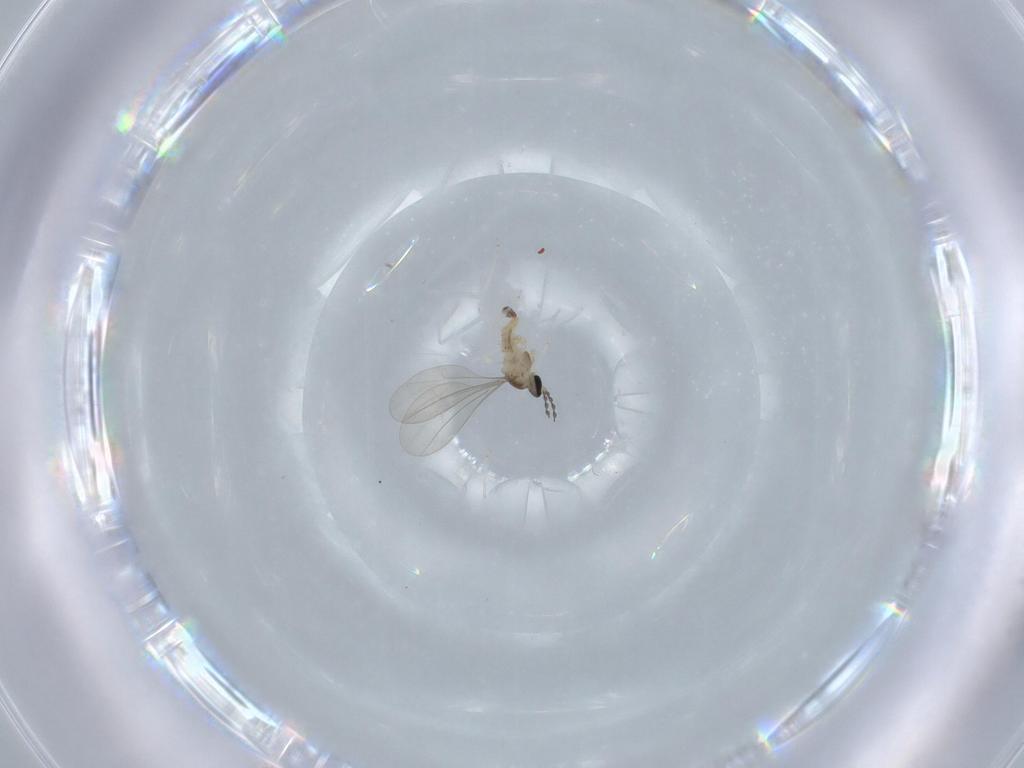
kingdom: Animalia
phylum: Arthropoda
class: Insecta
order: Diptera
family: Cecidomyiidae
